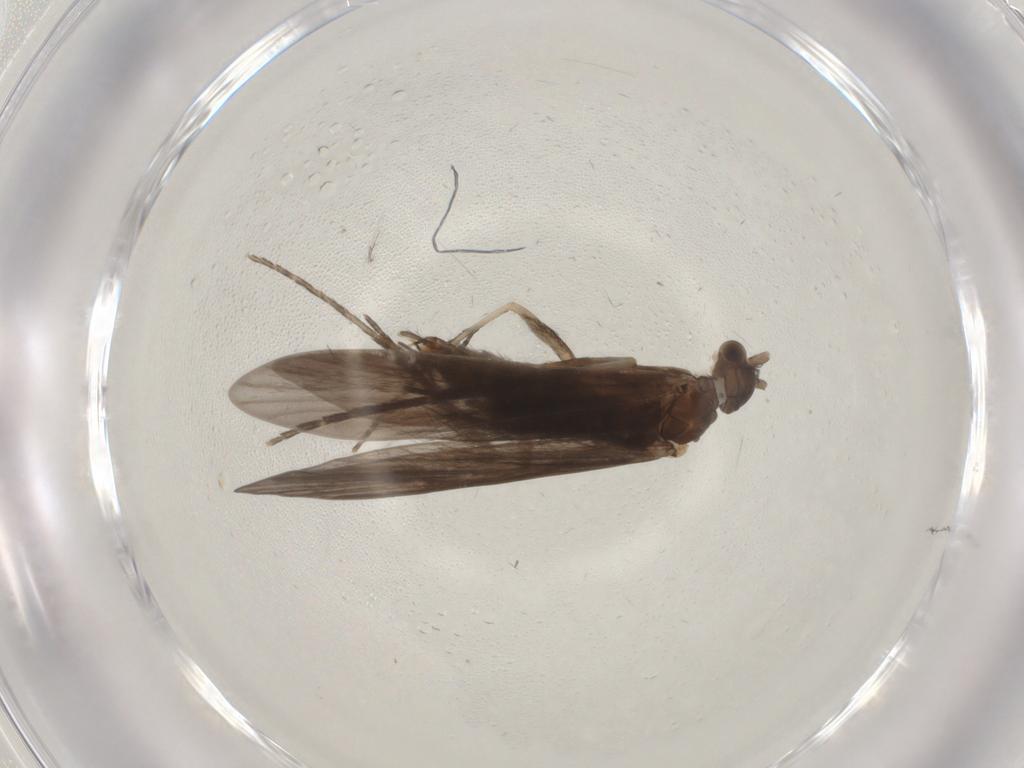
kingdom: Animalia
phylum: Arthropoda
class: Insecta
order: Trichoptera
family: Xiphocentronidae
